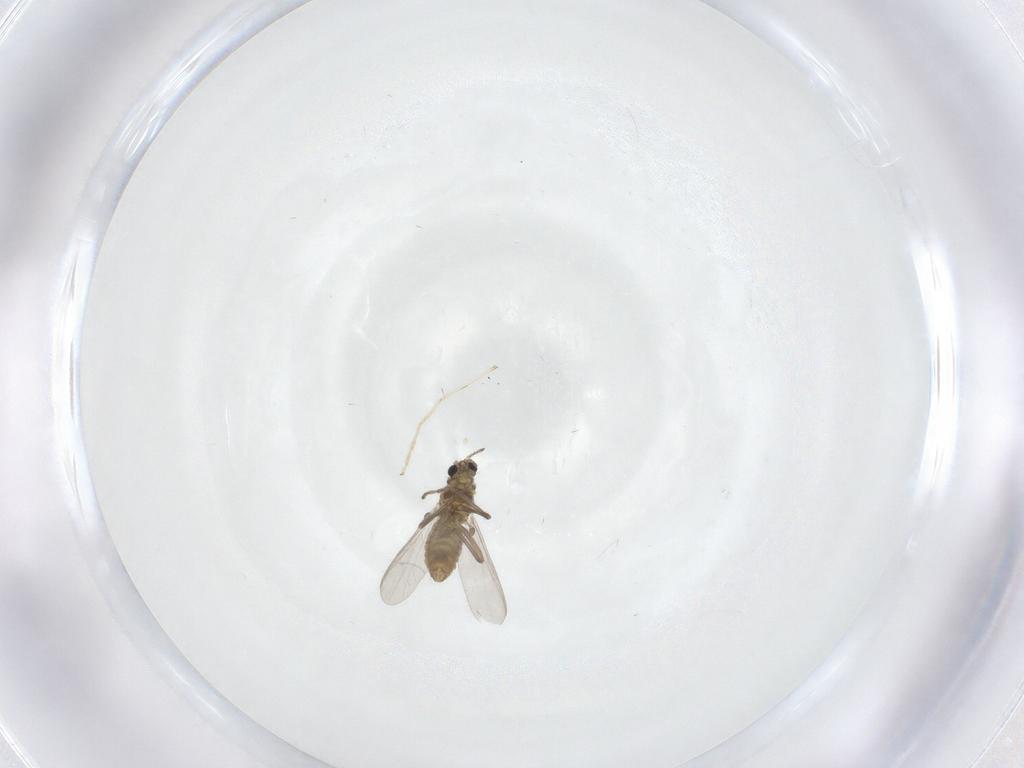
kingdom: Animalia
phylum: Arthropoda
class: Insecta
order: Diptera
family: Chironomidae
